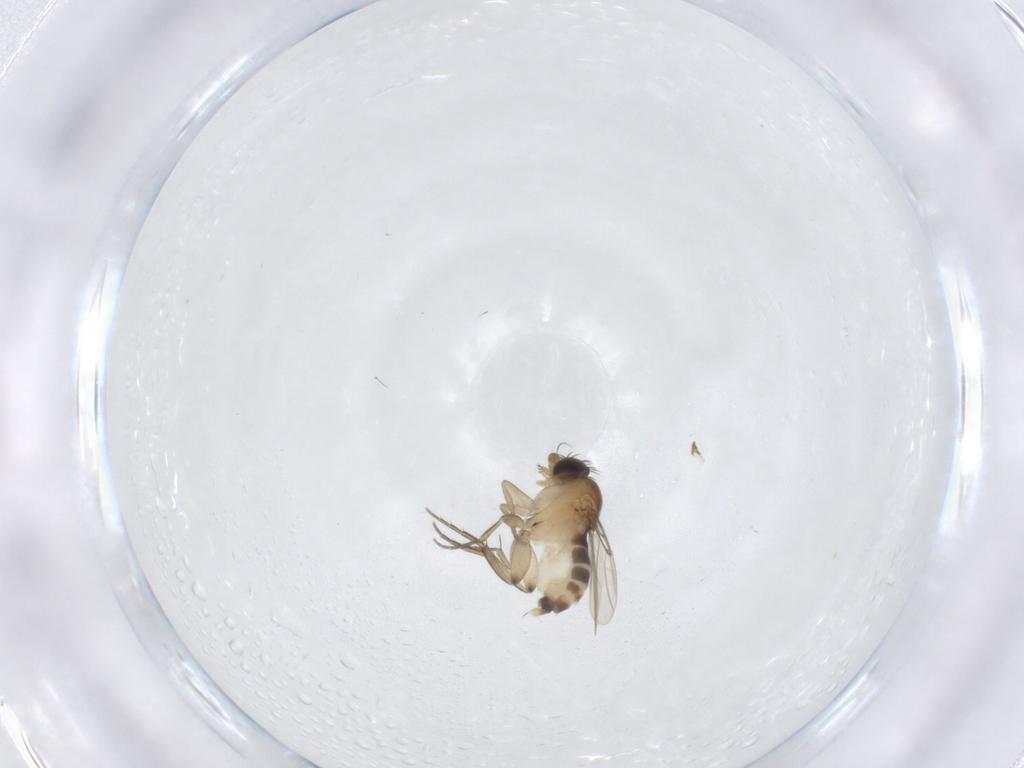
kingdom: Animalia
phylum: Arthropoda
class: Insecta
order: Diptera
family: Phoridae
